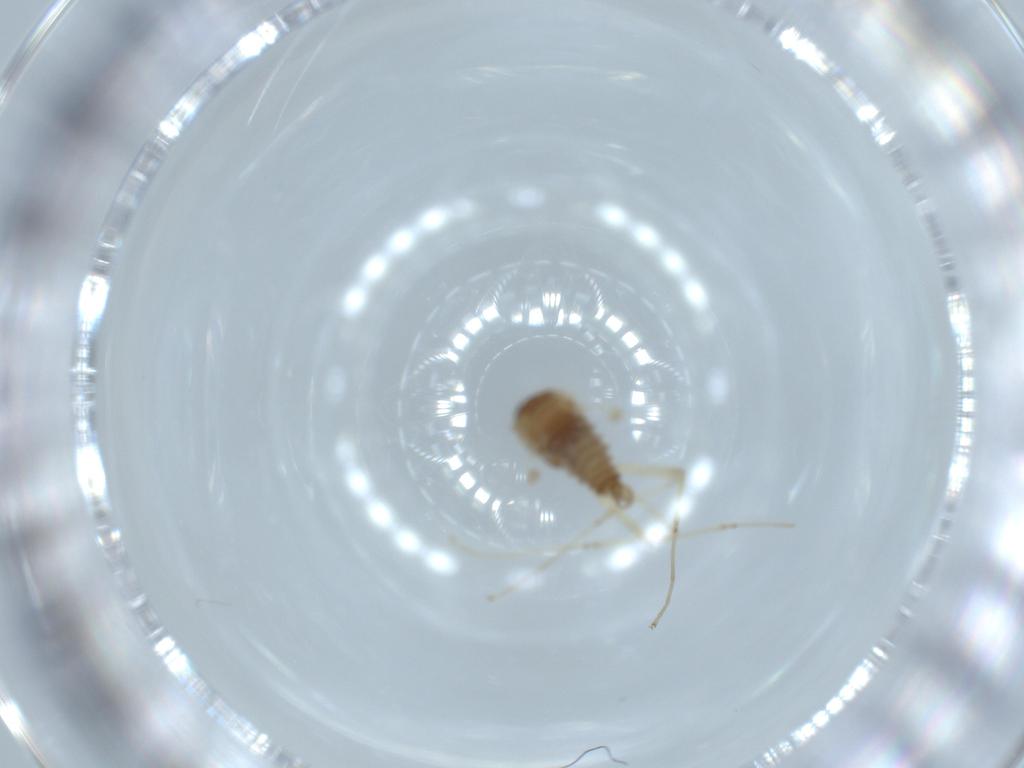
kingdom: Animalia
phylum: Arthropoda
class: Insecta
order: Diptera
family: Cecidomyiidae
